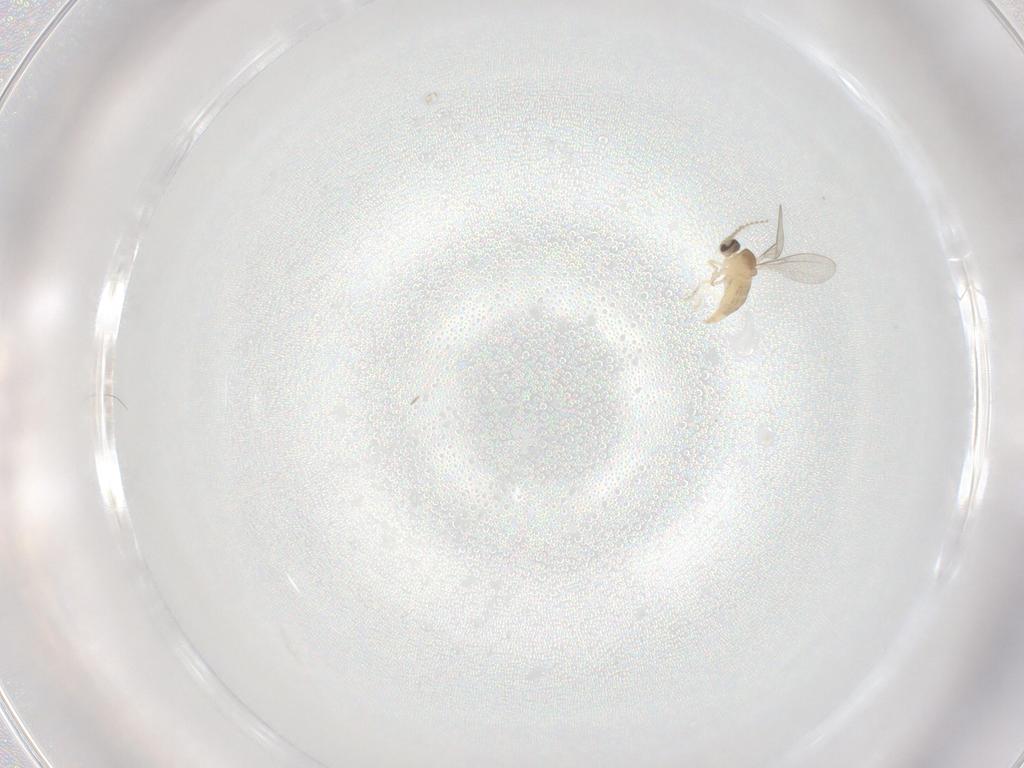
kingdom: Animalia
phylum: Arthropoda
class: Insecta
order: Diptera
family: Cecidomyiidae
